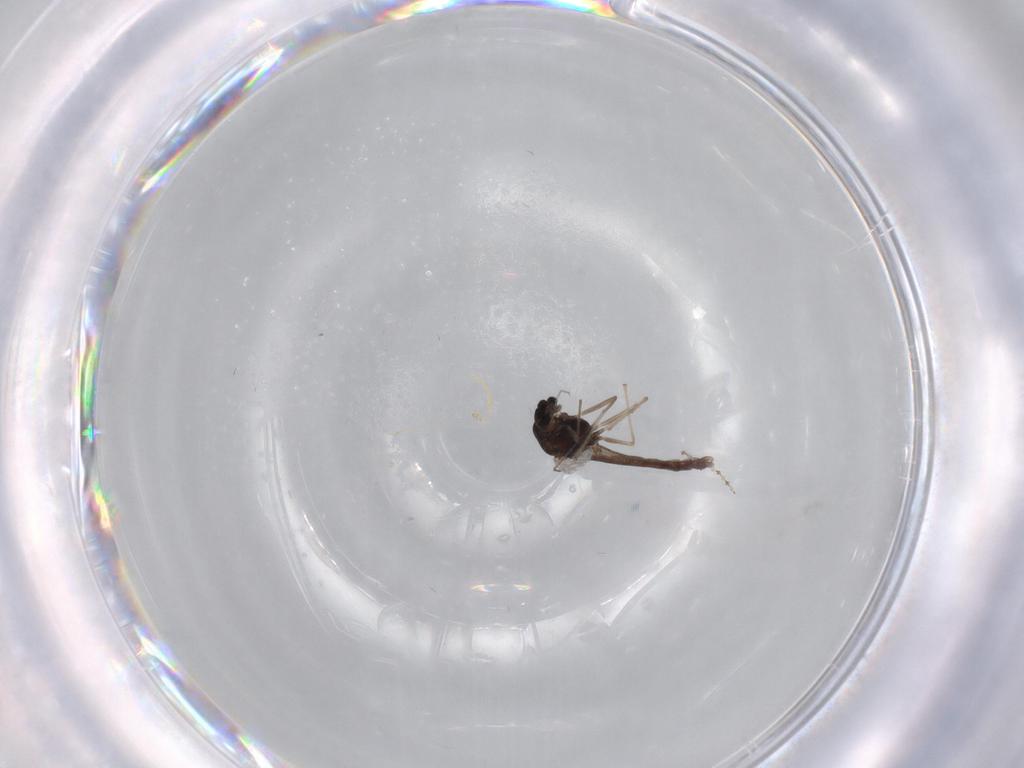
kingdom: Animalia
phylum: Arthropoda
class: Insecta
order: Diptera
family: Chironomidae
